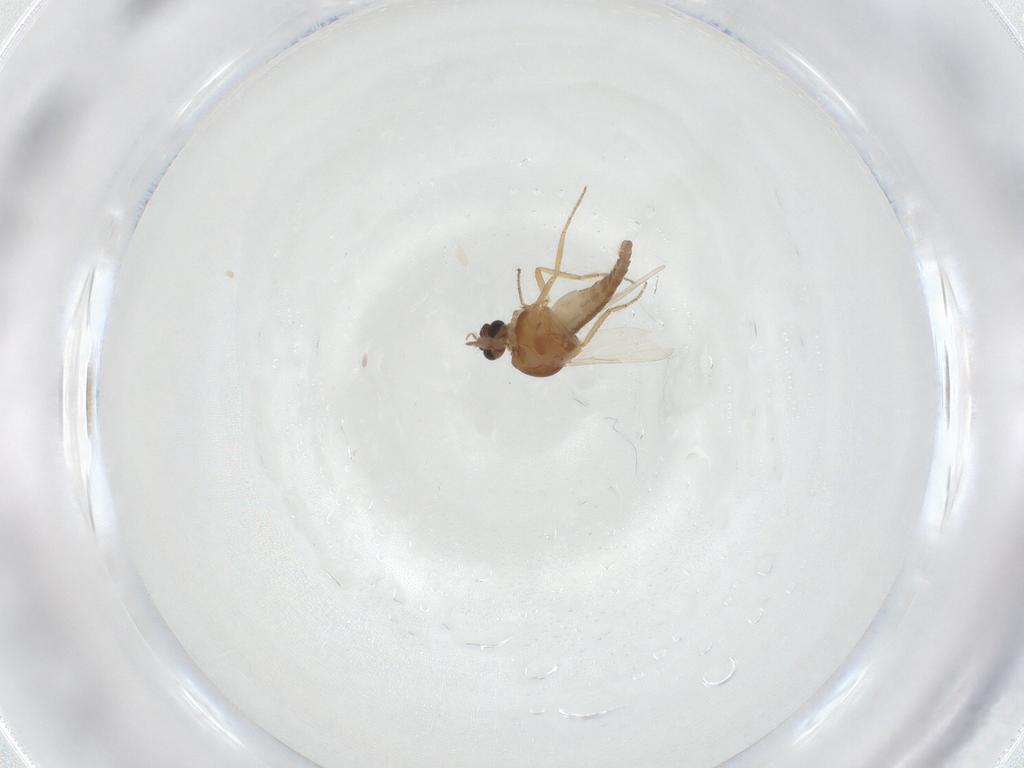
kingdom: Animalia
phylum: Arthropoda
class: Insecta
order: Diptera
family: Ceratopogonidae
